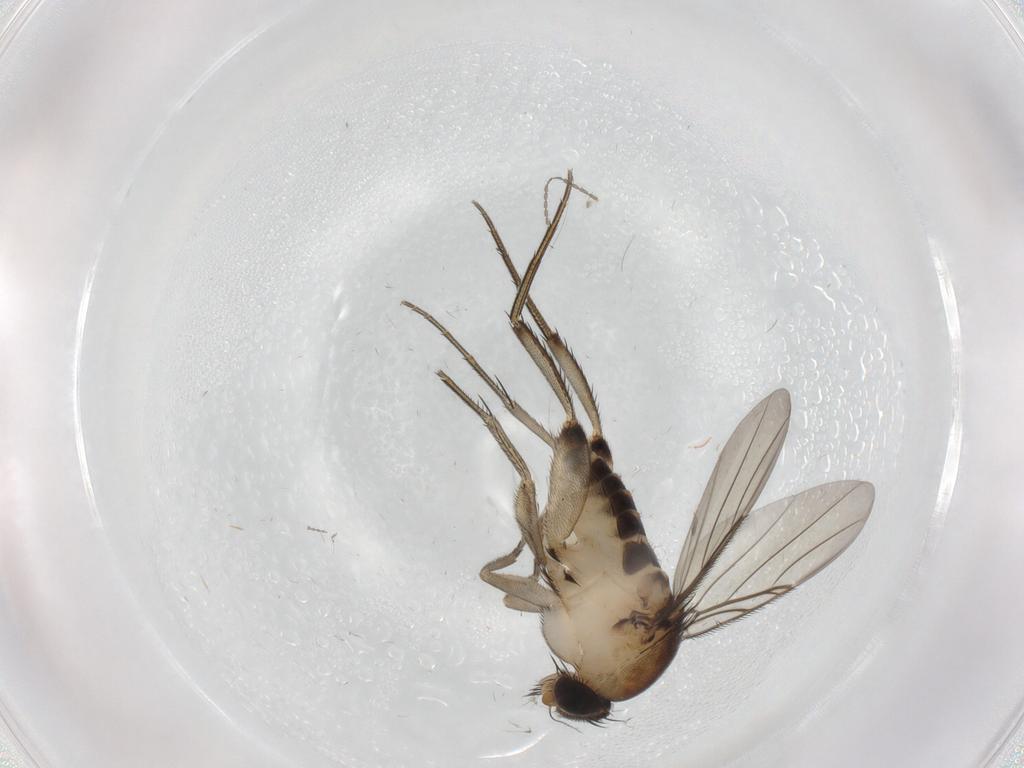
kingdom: Animalia
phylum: Arthropoda
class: Insecta
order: Diptera
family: Phoridae
